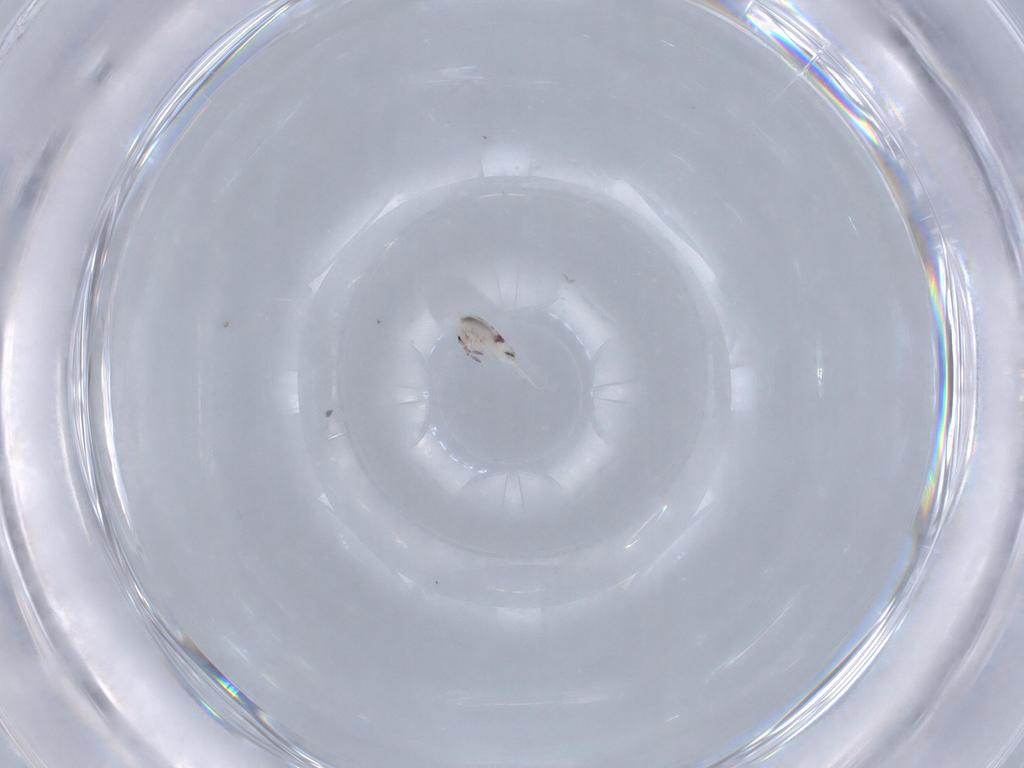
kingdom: Animalia
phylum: Arthropoda
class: Collembola
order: Entomobryomorpha
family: Entomobryidae
